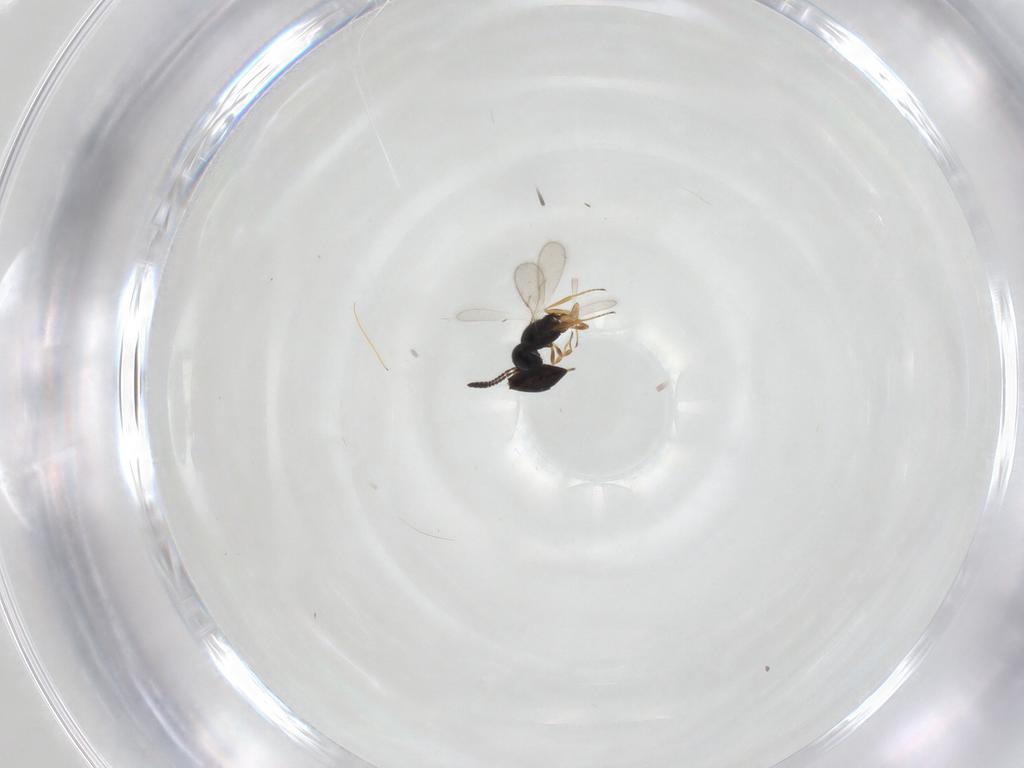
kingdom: Animalia
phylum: Arthropoda
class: Insecta
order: Hymenoptera
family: Scelionidae
